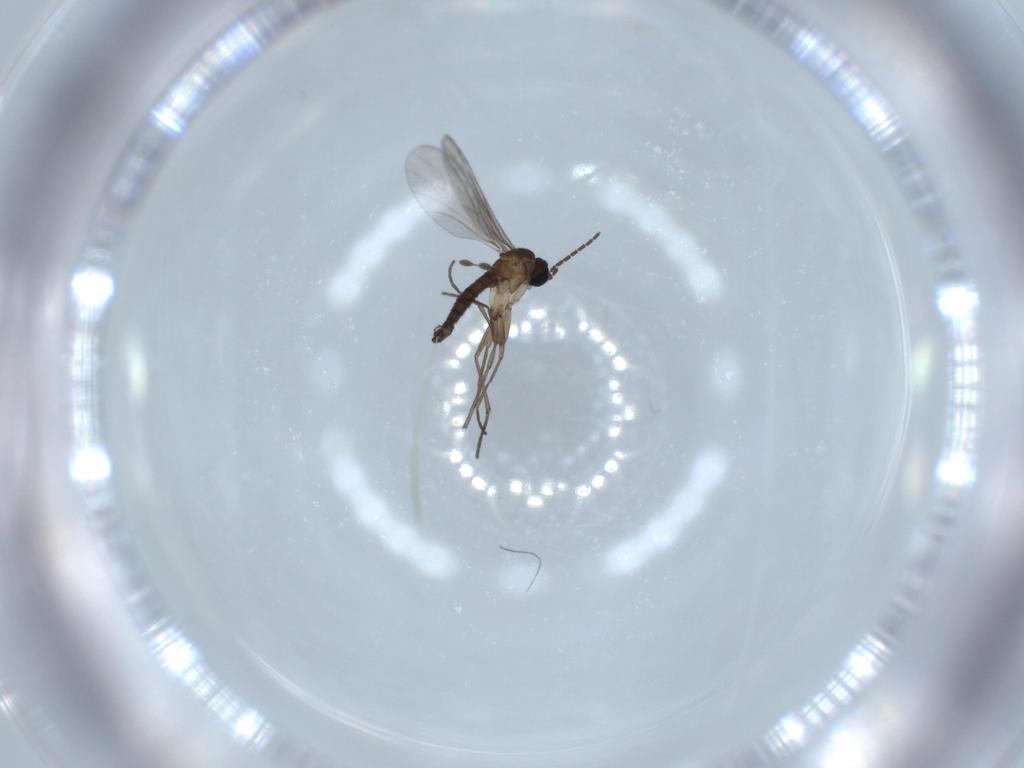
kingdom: Animalia
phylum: Arthropoda
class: Insecta
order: Diptera
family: Sciaridae
